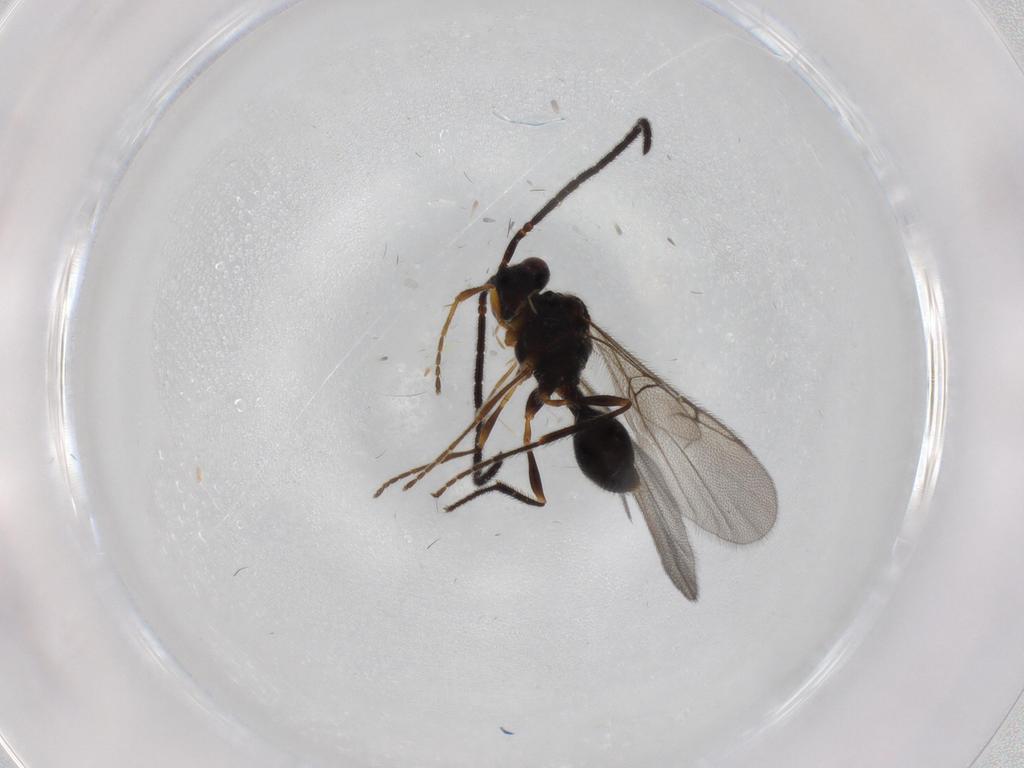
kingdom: Animalia
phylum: Arthropoda
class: Insecta
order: Hymenoptera
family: Diapriidae
